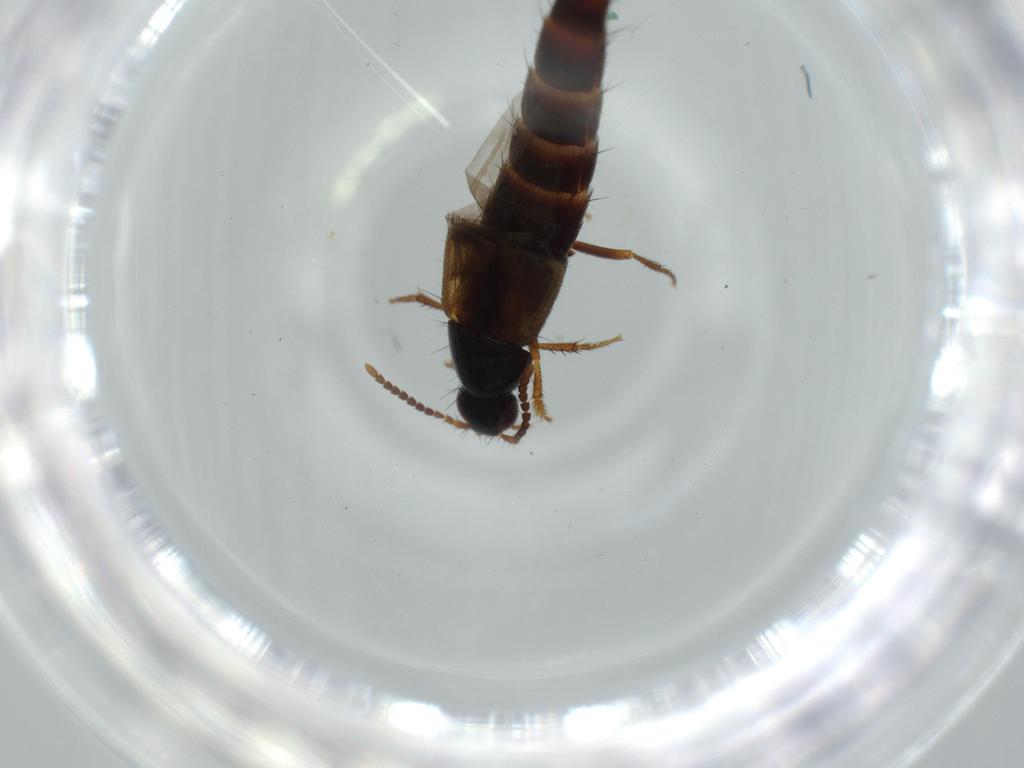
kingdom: Animalia
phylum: Arthropoda
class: Insecta
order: Coleoptera
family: Staphylinidae
